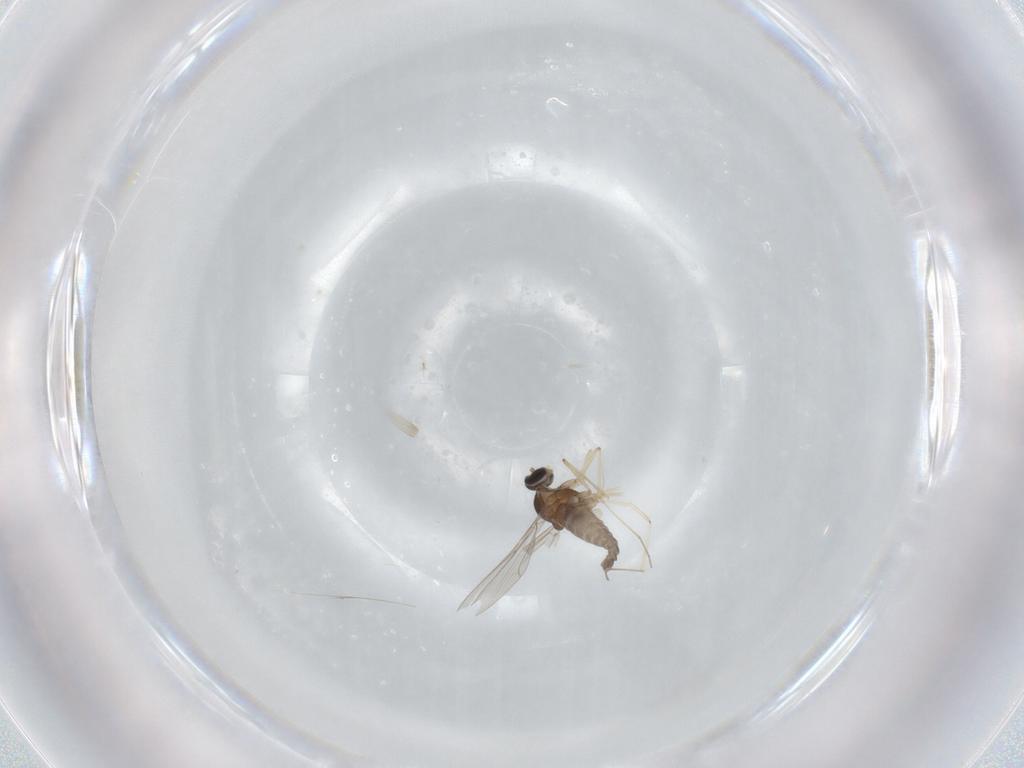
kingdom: Animalia
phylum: Arthropoda
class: Insecta
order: Diptera
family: Cecidomyiidae
